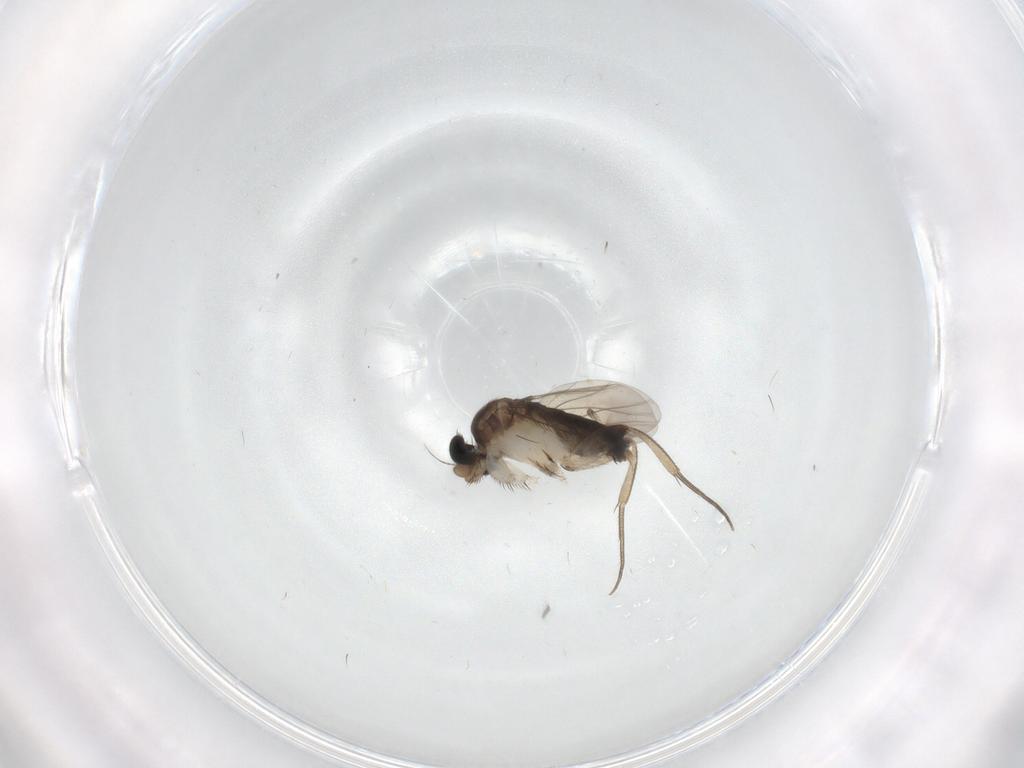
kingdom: Animalia
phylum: Arthropoda
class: Insecta
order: Diptera
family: Phoridae
